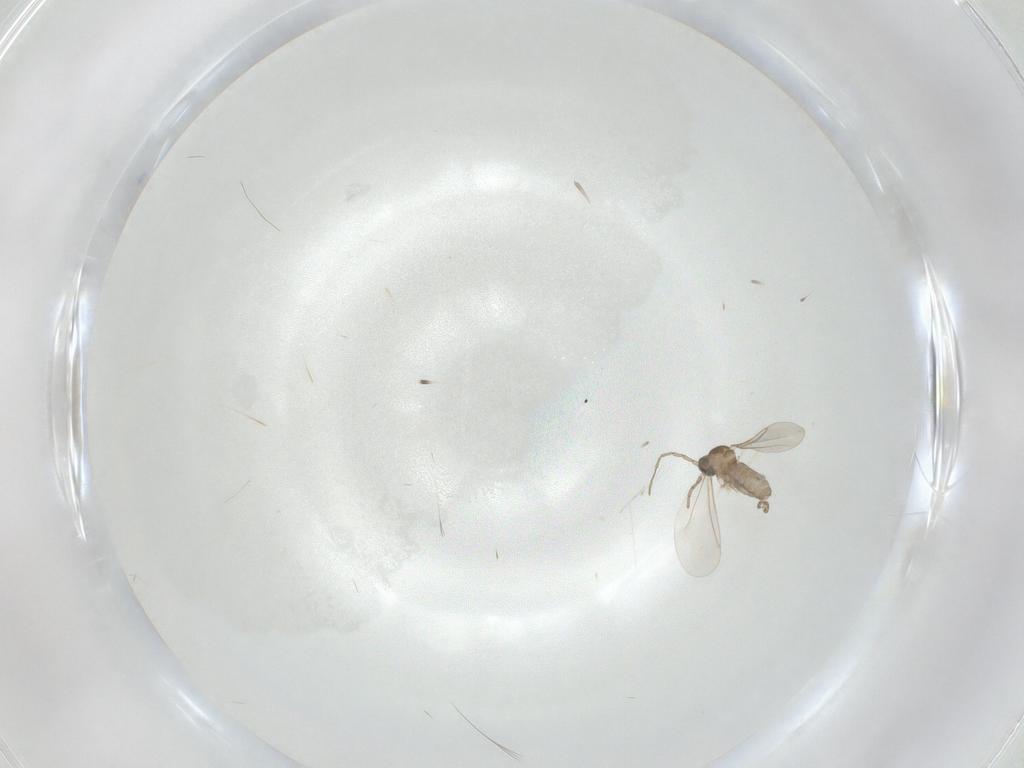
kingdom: Animalia
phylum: Arthropoda
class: Insecta
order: Diptera
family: Cecidomyiidae
